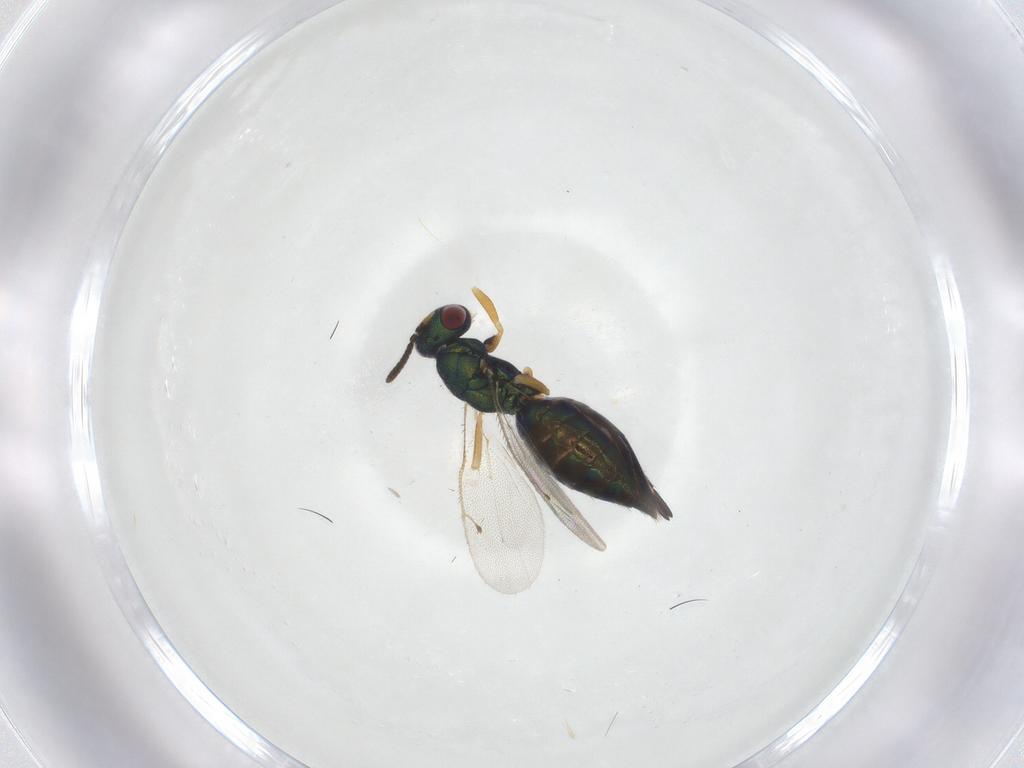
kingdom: Animalia
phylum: Arthropoda
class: Insecta
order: Hymenoptera
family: Pteromalidae
